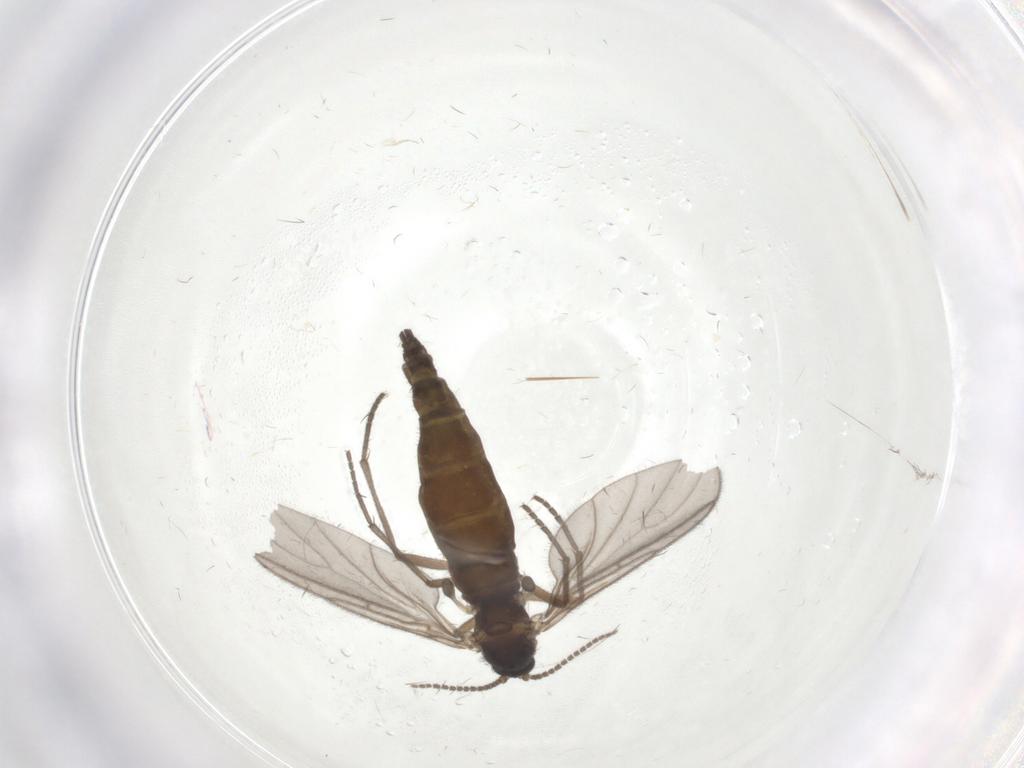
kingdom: Animalia
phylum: Arthropoda
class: Insecta
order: Diptera
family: Sciaridae
